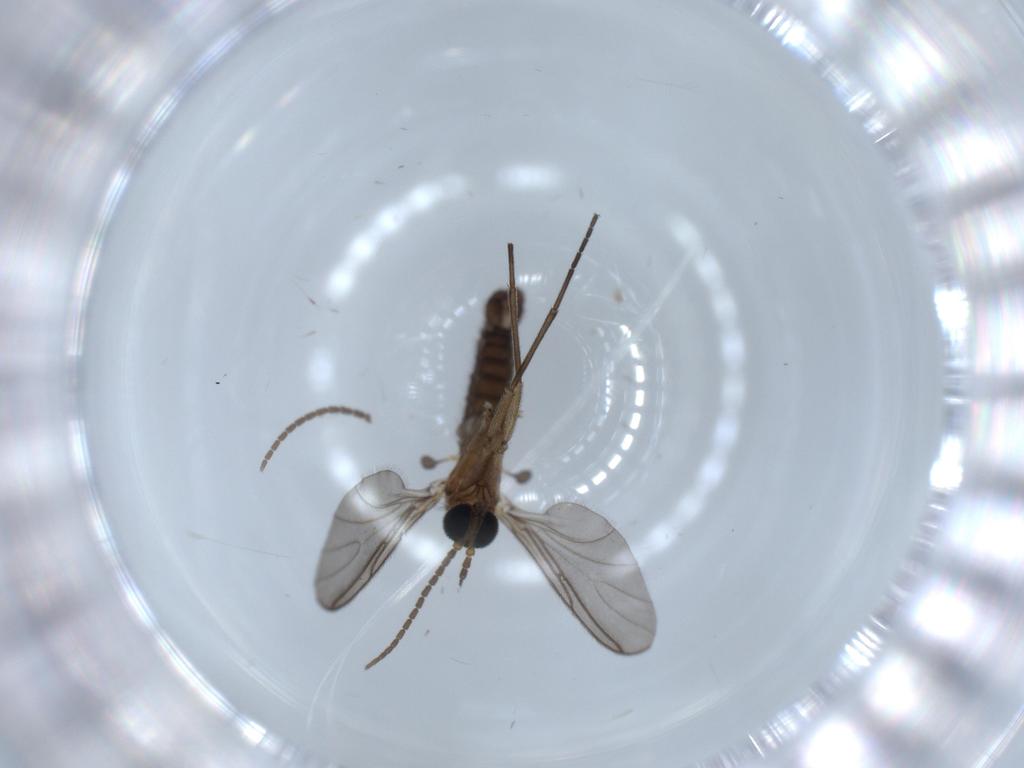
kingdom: Animalia
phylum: Arthropoda
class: Insecta
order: Diptera
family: Sciaridae
